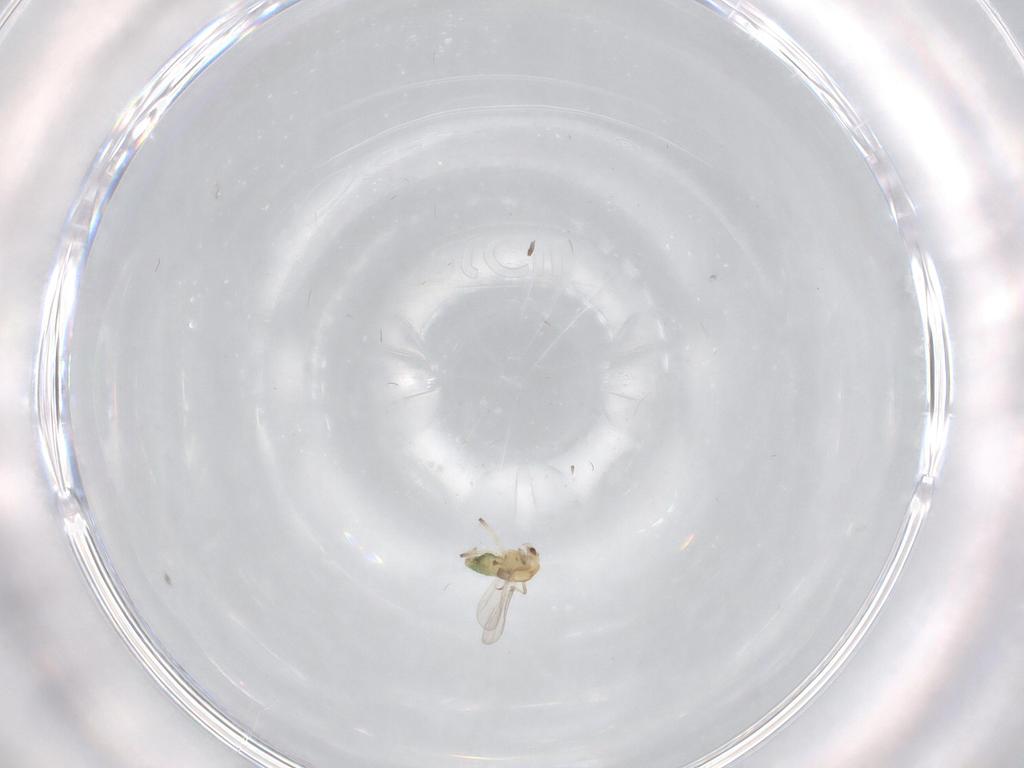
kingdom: Animalia
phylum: Arthropoda
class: Insecta
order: Diptera
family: Chironomidae
